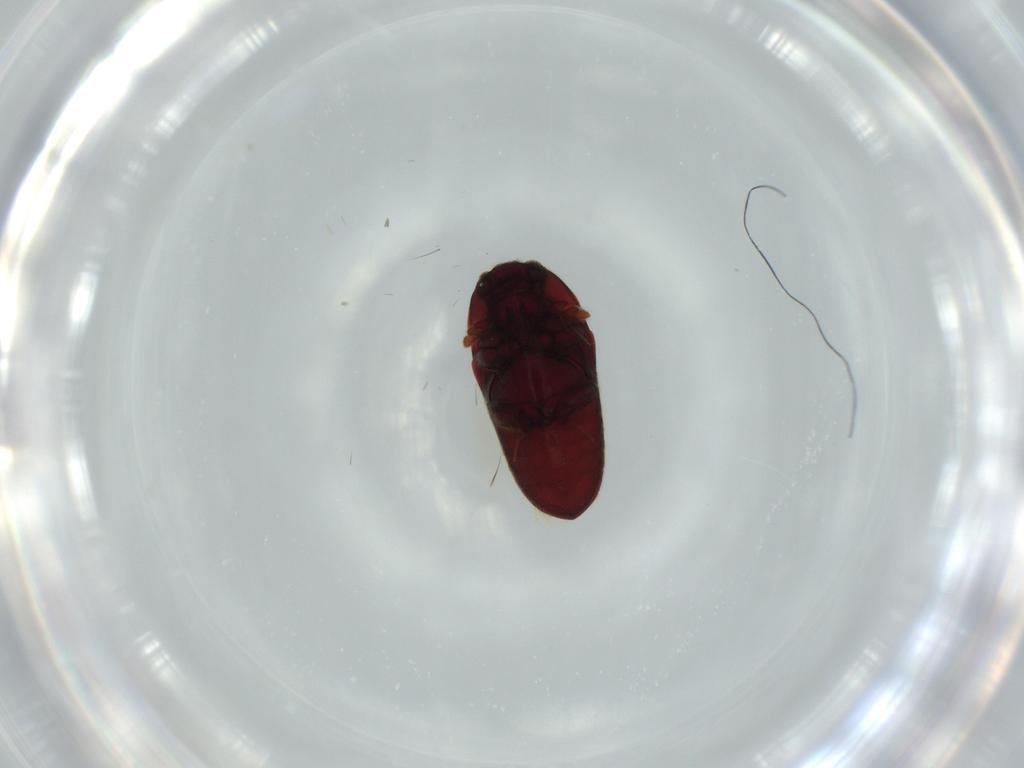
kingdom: Animalia
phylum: Arthropoda
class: Insecta
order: Coleoptera
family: Throscidae
